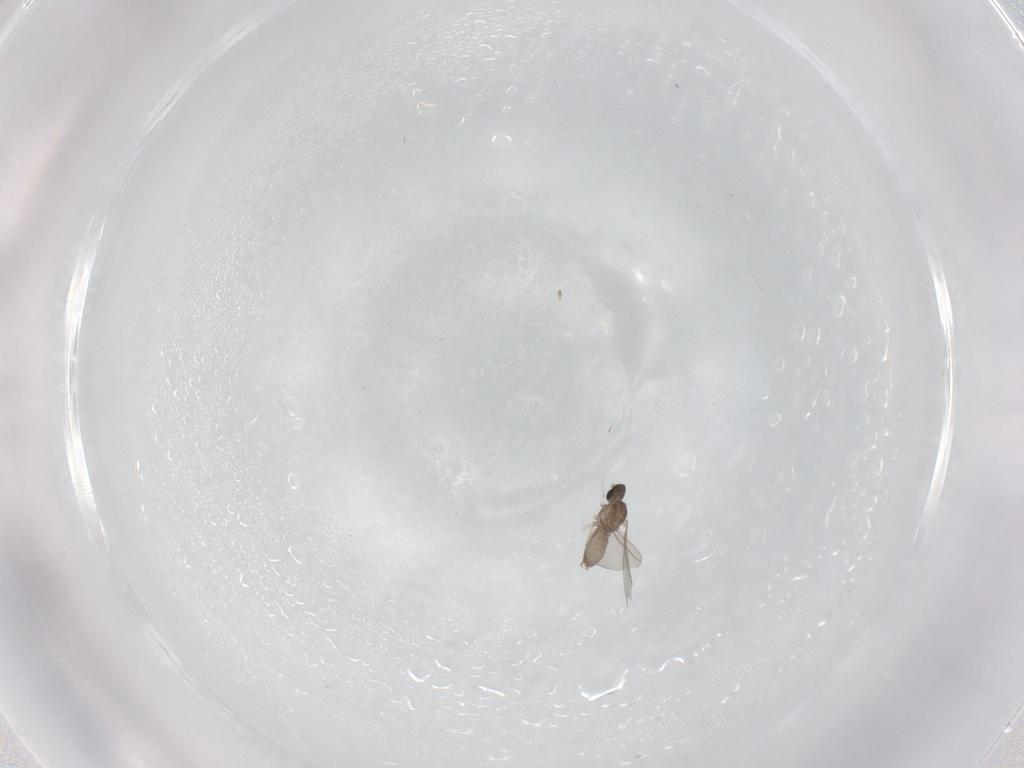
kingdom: Animalia
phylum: Arthropoda
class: Insecta
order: Diptera
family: Cecidomyiidae
